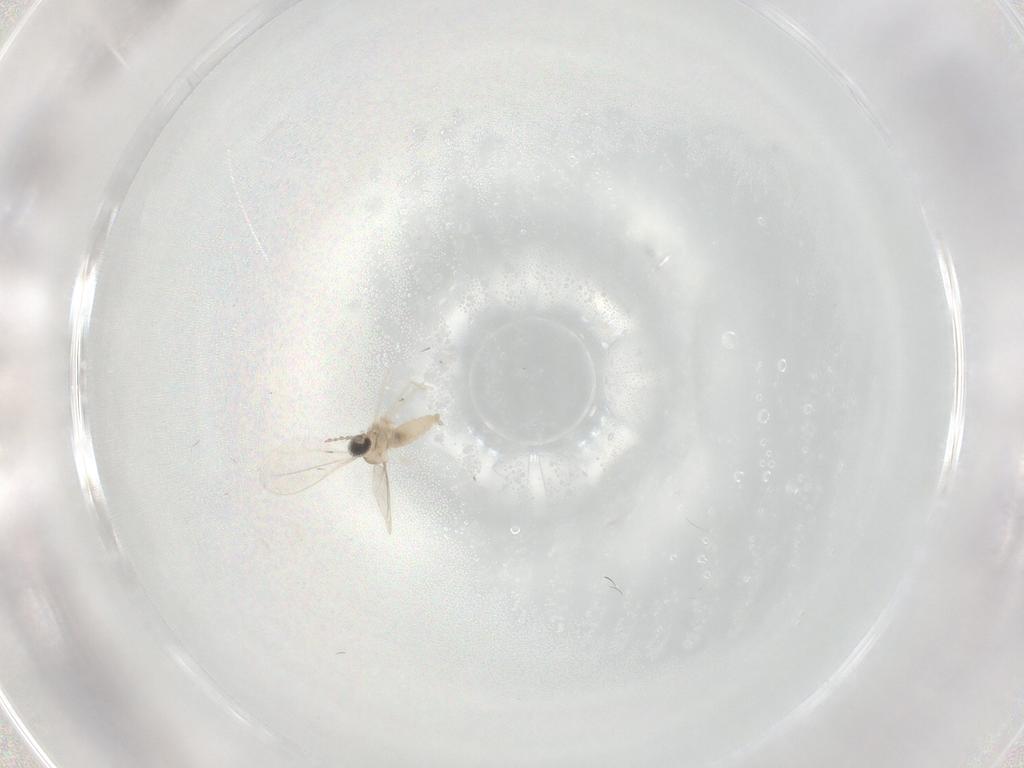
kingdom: Animalia
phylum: Arthropoda
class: Insecta
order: Diptera
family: Cecidomyiidae
